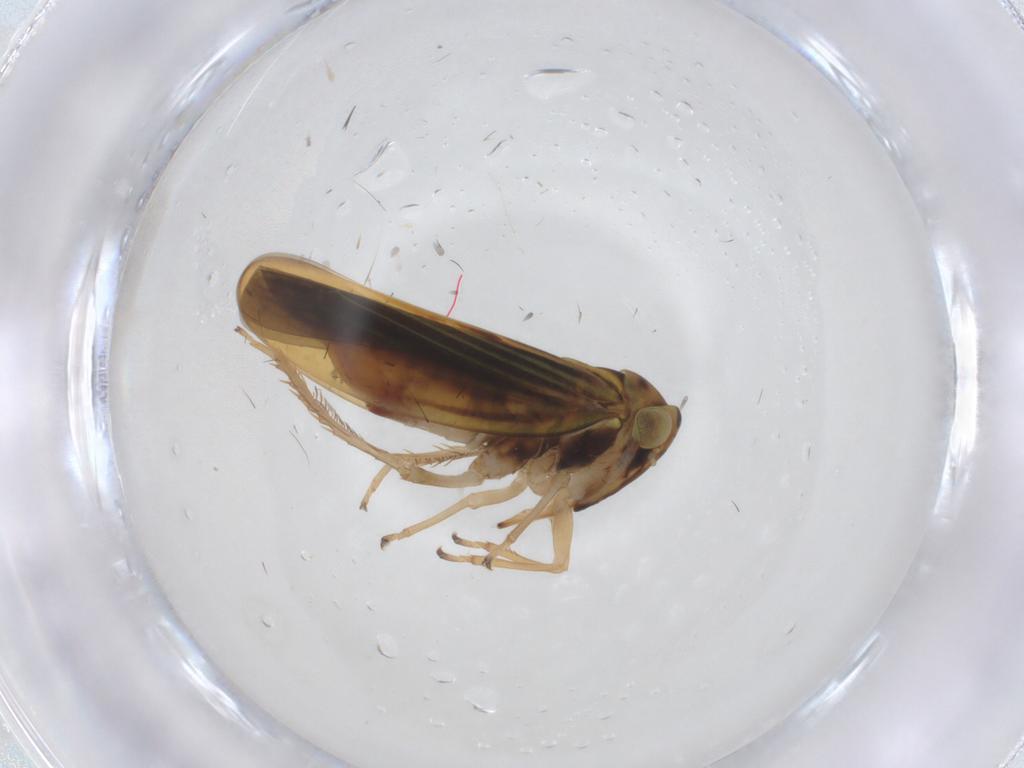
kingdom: Animalia
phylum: Arthropoda
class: Insecta
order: Hemiptera
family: Cicadellidae
